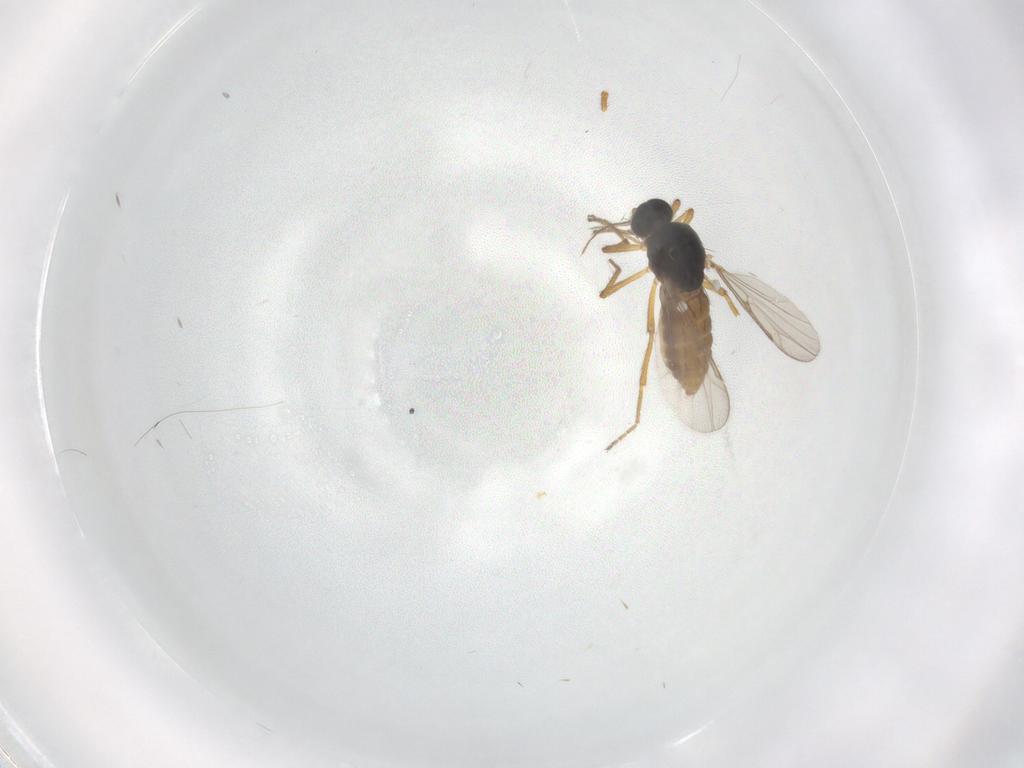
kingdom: Animalia
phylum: Arthropoda
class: Insecta
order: Diptera
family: Ceratopogonidae
